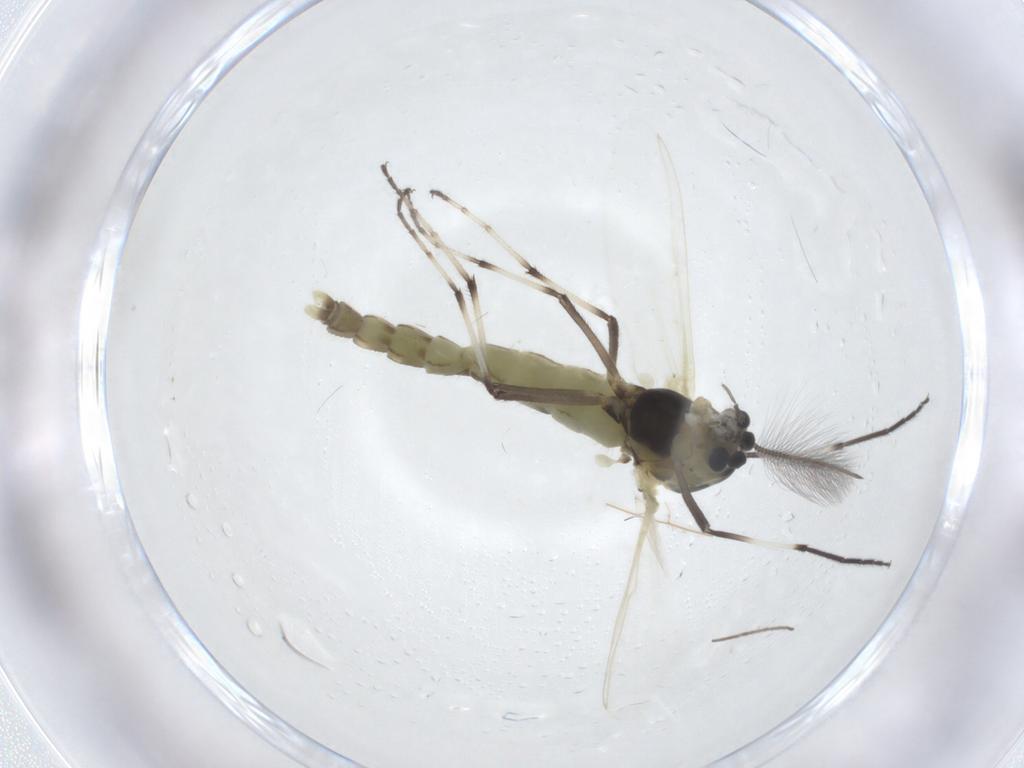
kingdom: Animalia
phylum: Arthropoda
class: Insecta
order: Diptera
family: Chironomidae
